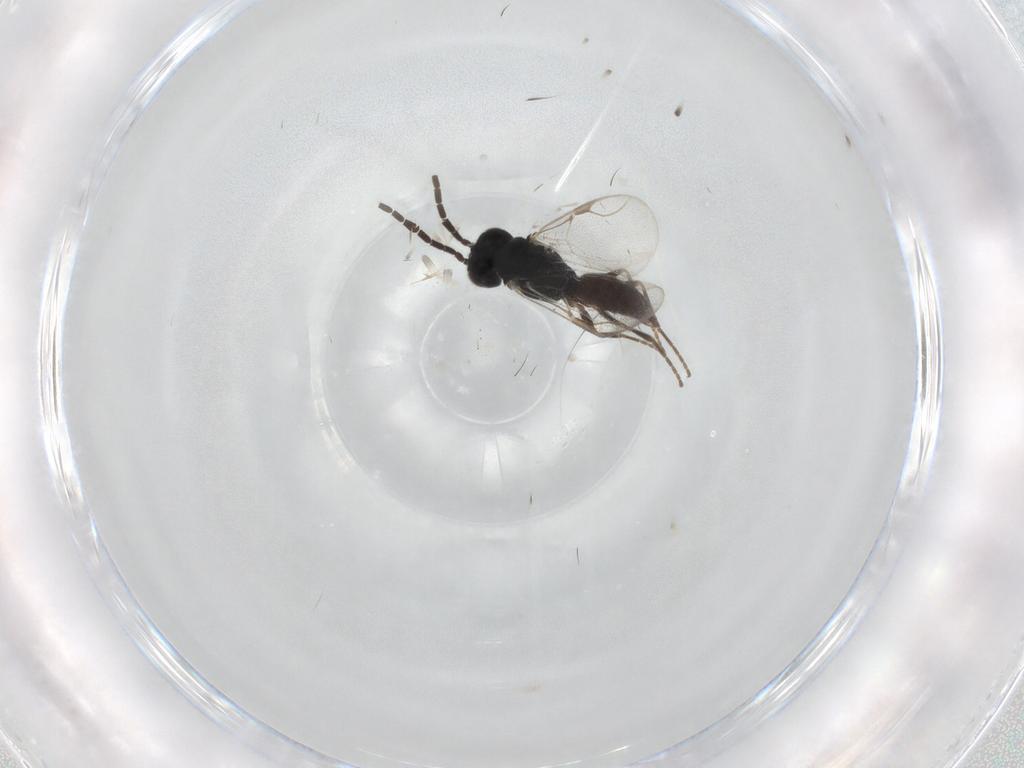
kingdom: Animalia
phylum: Arthropoda
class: Insecta
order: Hymenoptera
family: Dryinidae
